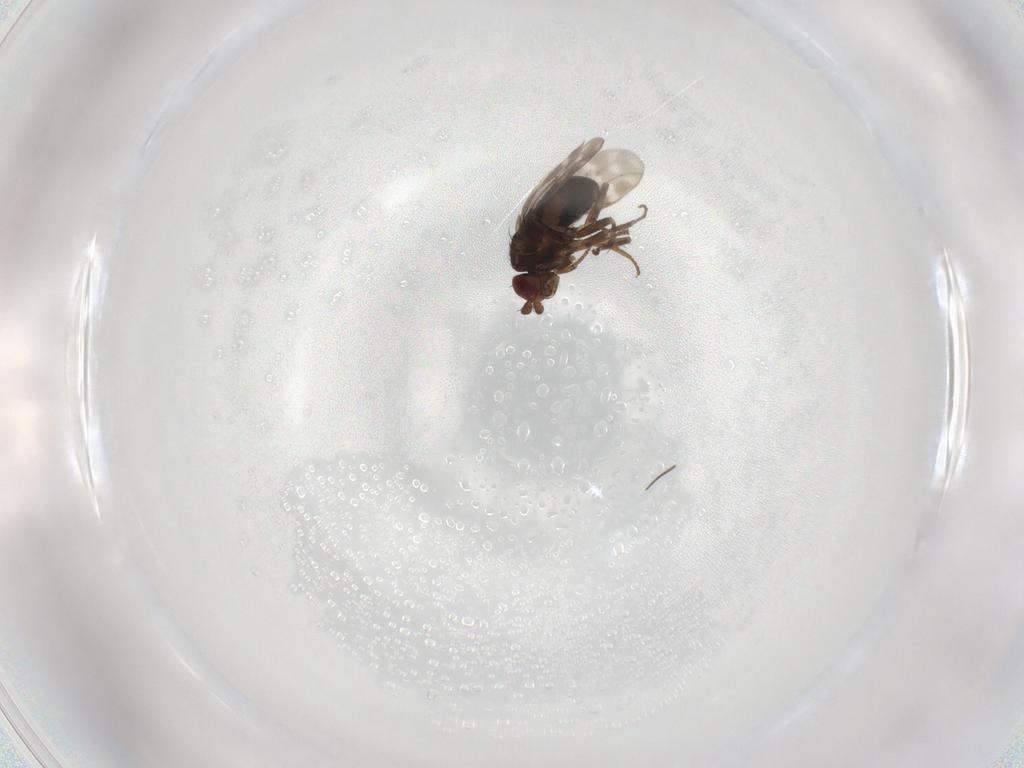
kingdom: Animalia
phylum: Arthropoda
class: Insecta
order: Diptera
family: Sphaeroceridae
